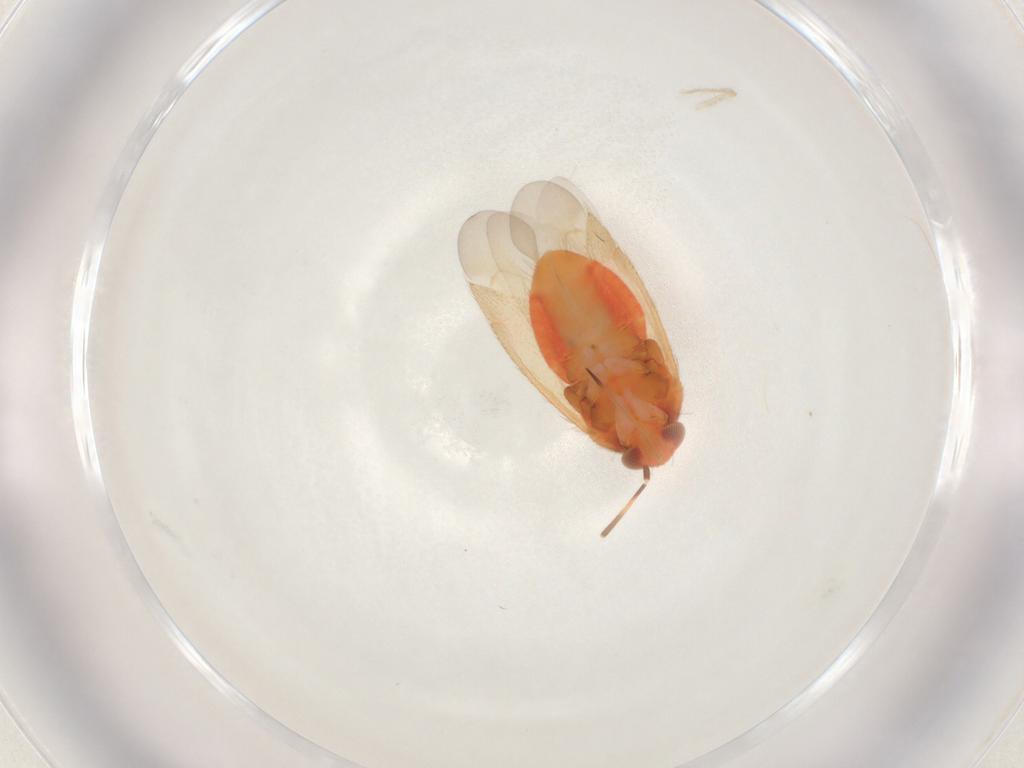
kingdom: Animalia
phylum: Arthropoda
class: Insecta
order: Hemiptera
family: Miridae
